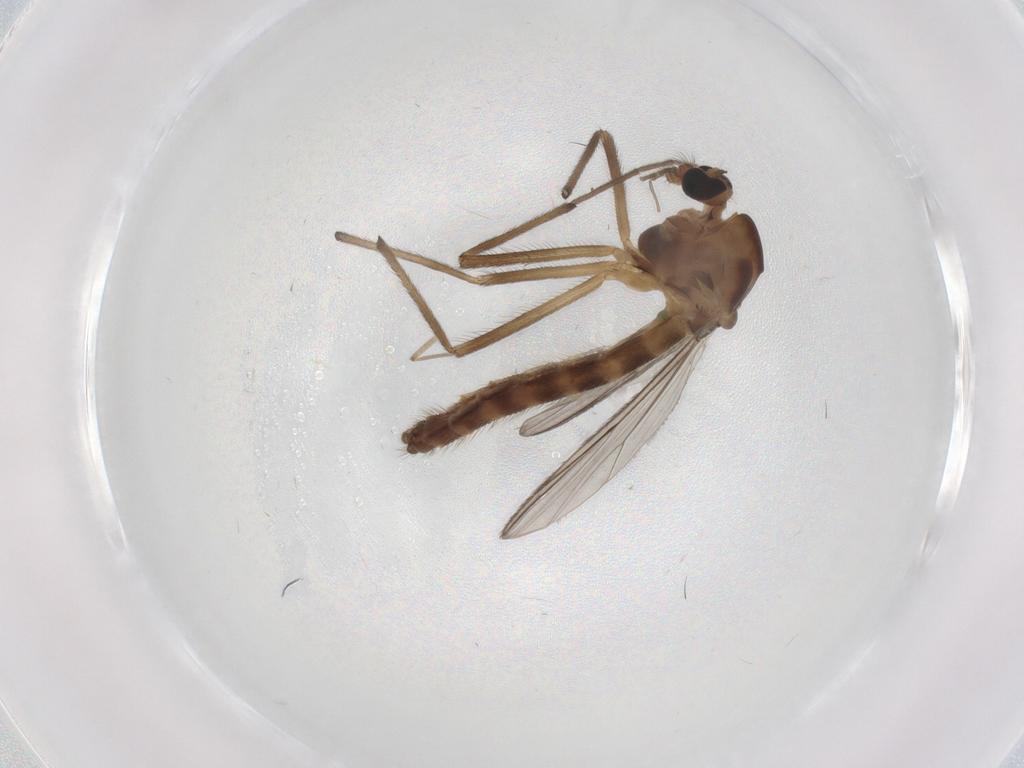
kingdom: Animalia
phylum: Arthropoda
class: Insecta
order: Diptera
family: Chironomidae
